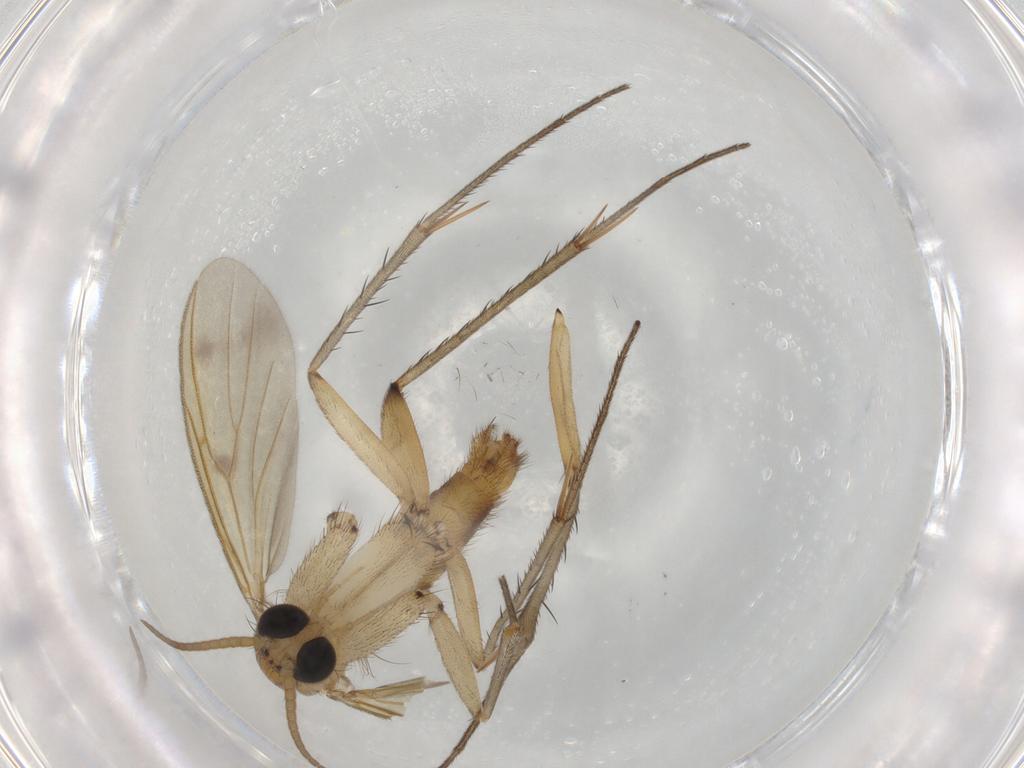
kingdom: Animalia
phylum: Arthropoda
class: Insecta
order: Diptera
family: Mycetophilidae
